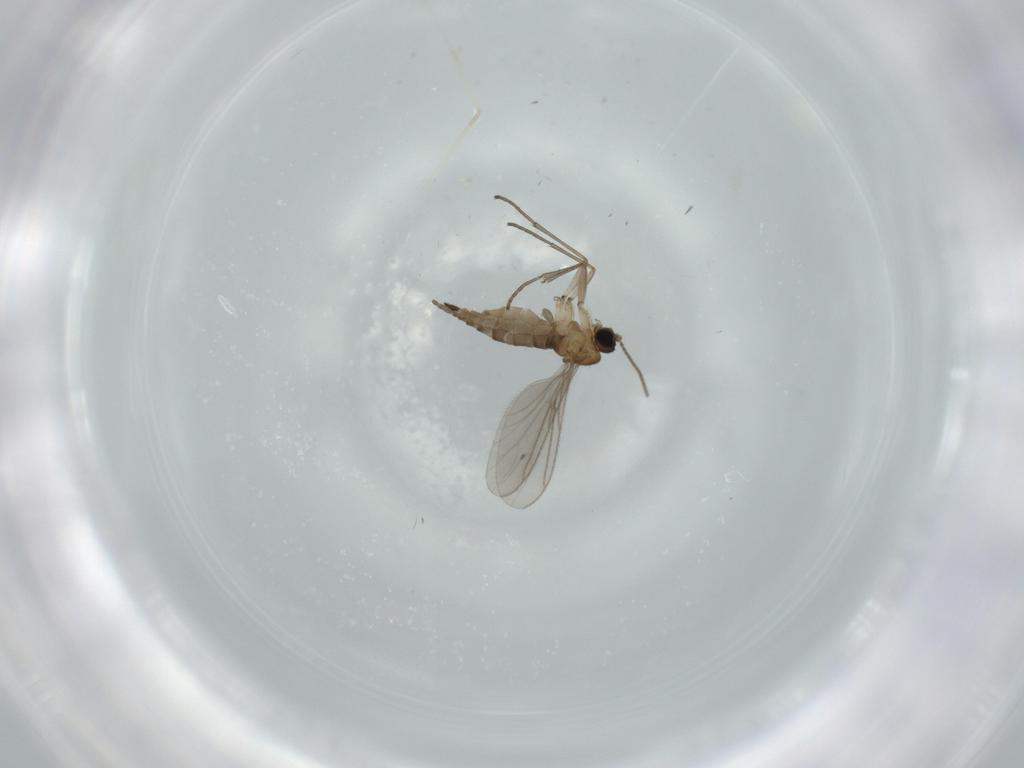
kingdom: Animalia
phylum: Arthropoda
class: Insecta
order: Diptera
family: Sciaridae
